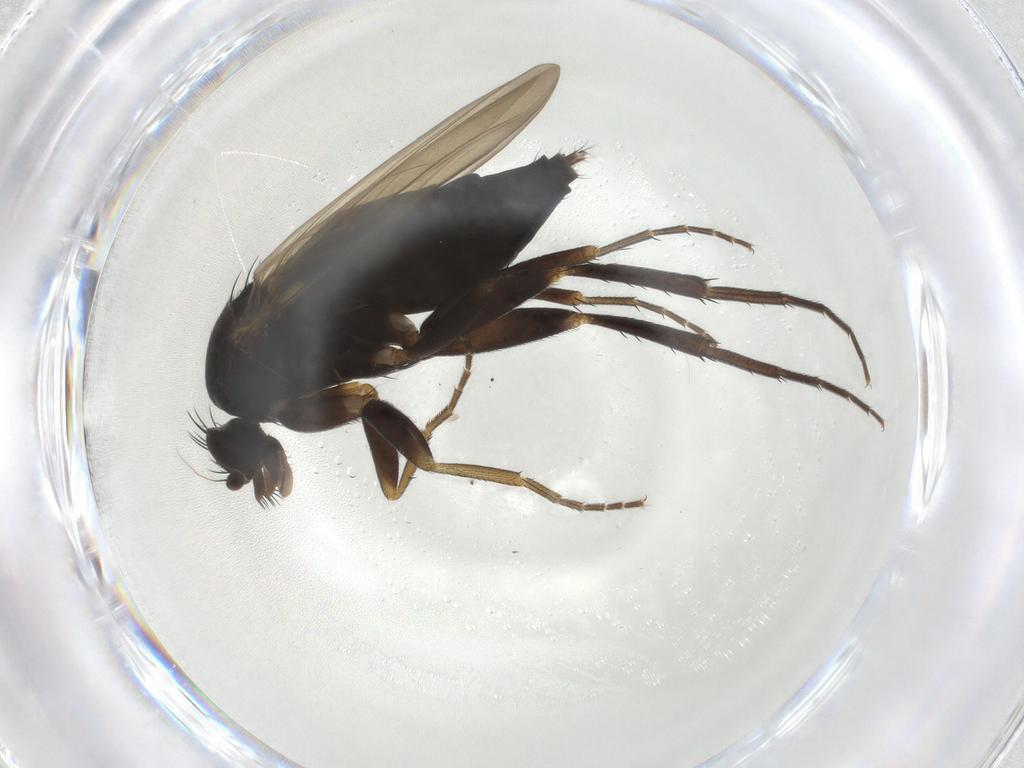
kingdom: Animalia
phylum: Arthropoda
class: Insecta
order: Diptera
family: Phoridae
